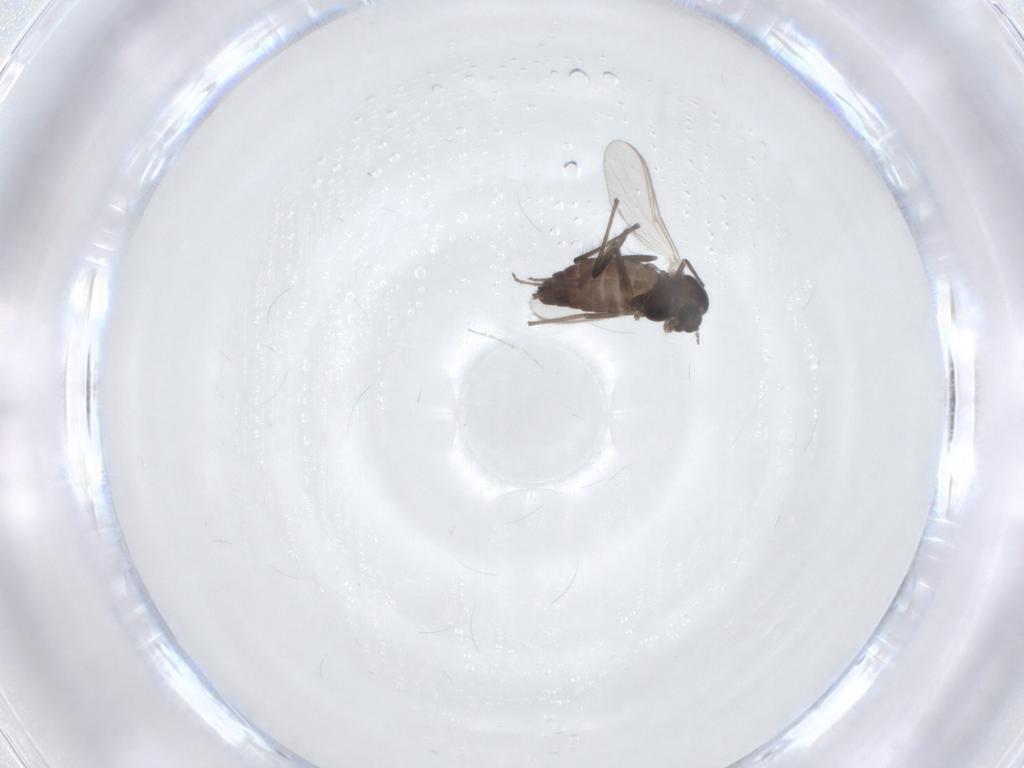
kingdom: Animalia
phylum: Arthropoda
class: Insecta
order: Diptera
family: Chironomidae
